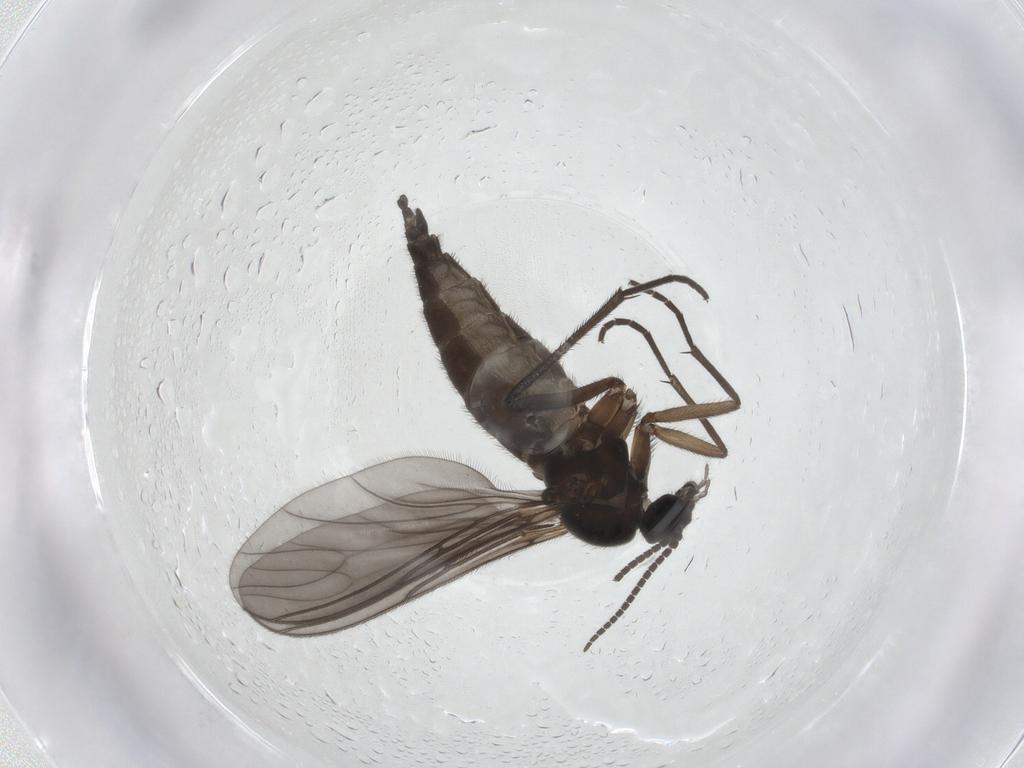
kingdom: Animalia
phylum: Arthropoda
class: Insecta
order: Diptera
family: Sciaridae
